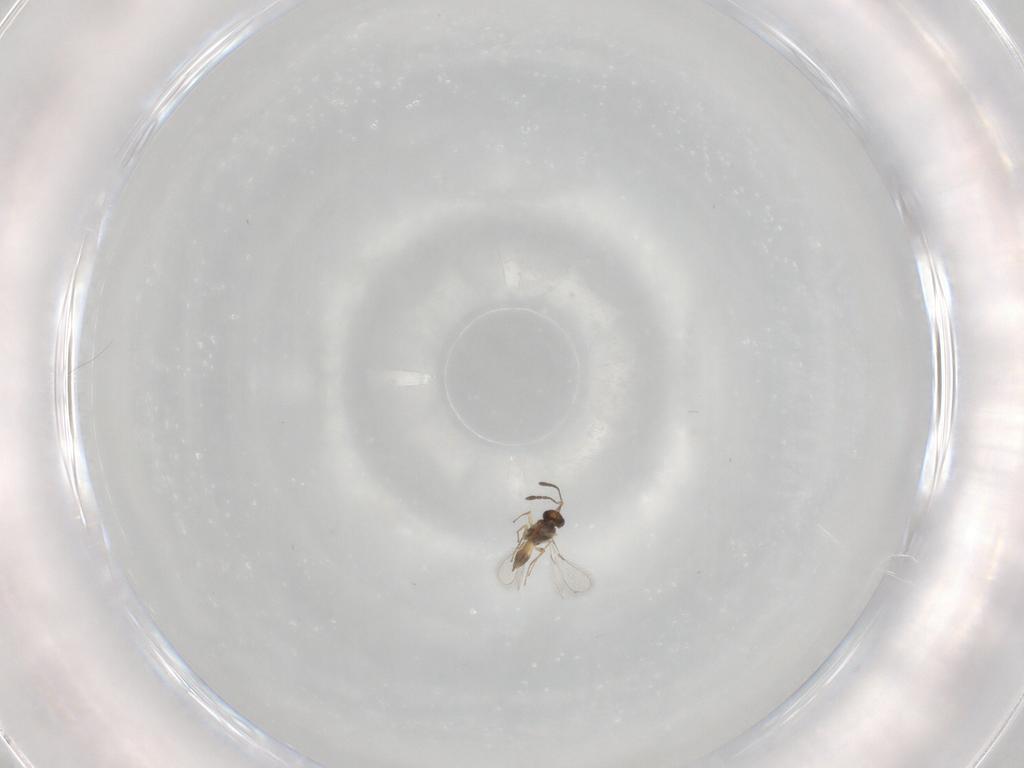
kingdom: Animalia
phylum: Arthropoda
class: Insecta
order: Hymenoptera
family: Mymaridae
